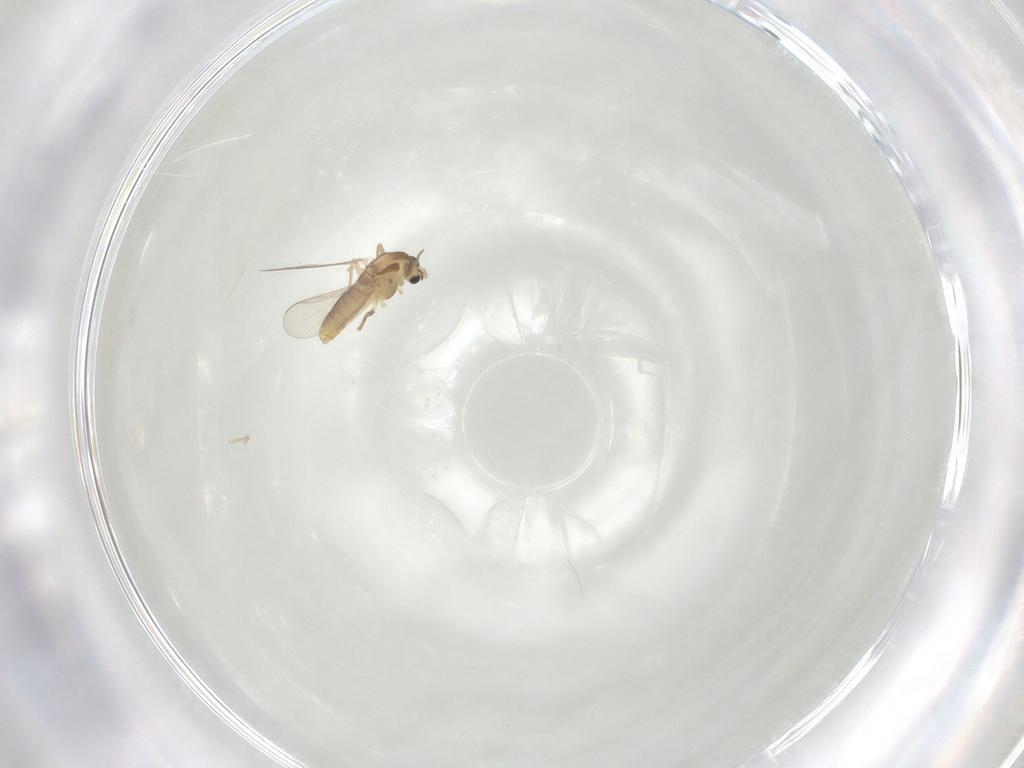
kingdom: Animalia
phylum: Arthropoda
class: Insecta
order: Diptera
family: Chironomidae
